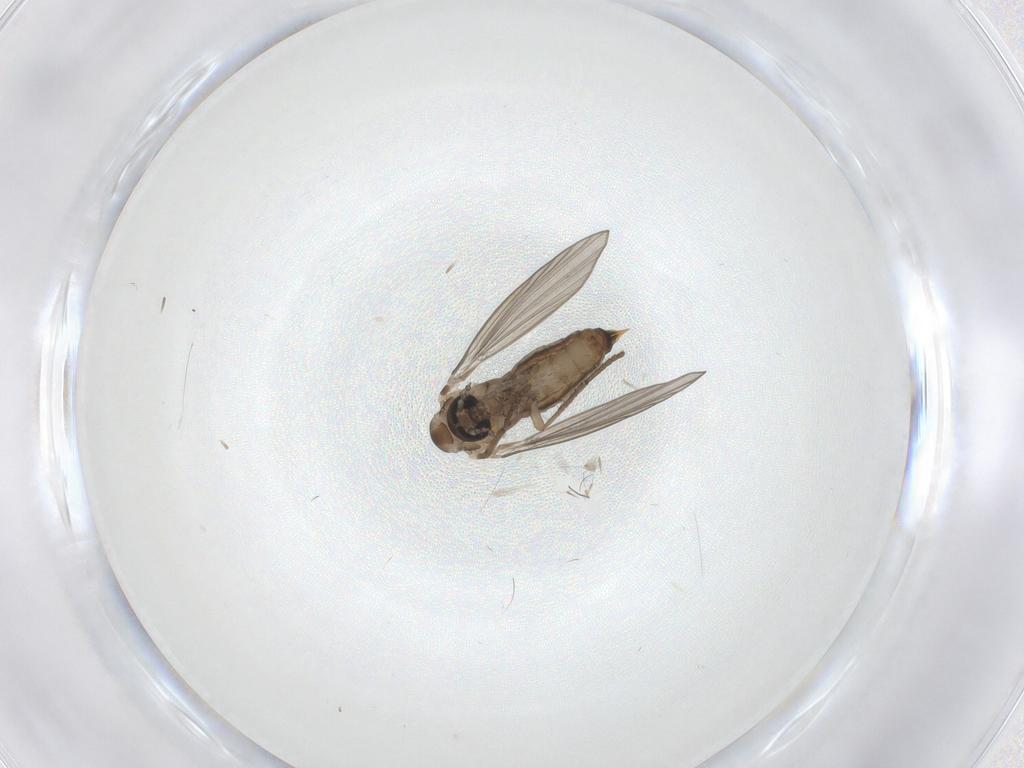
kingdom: Animalia
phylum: Arthropoda
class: Insecta
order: Diptera
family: Psychodidae
